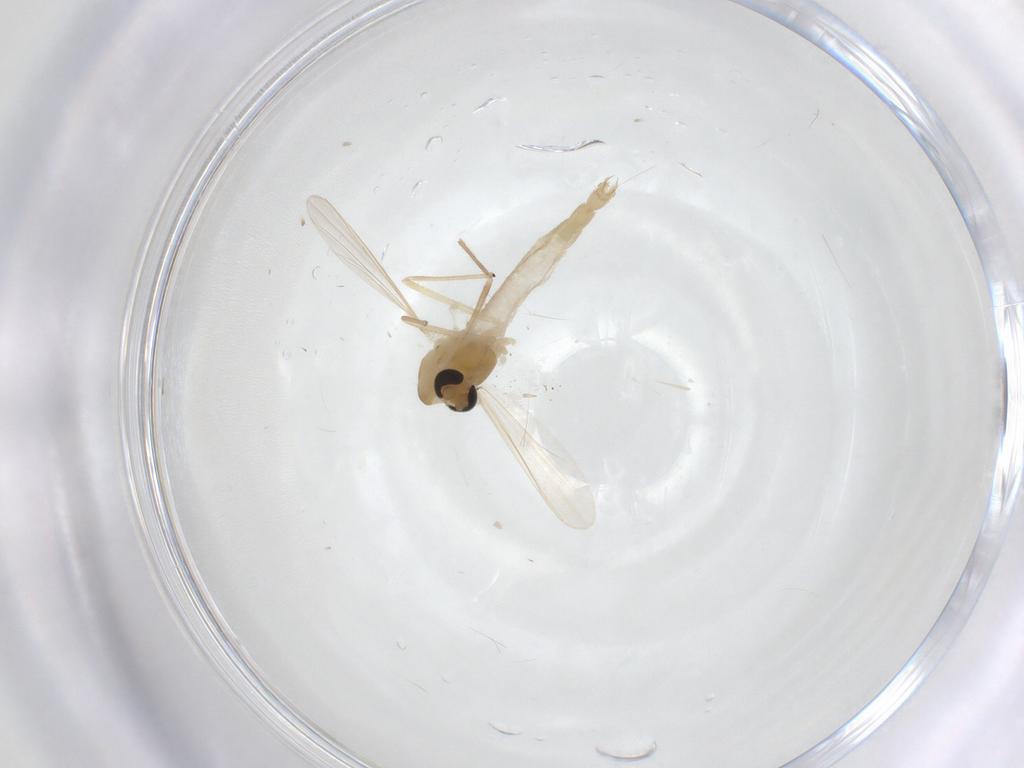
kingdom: Animalia
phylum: Arthropoda
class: Insecta
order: Diptera
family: Chironomidae
